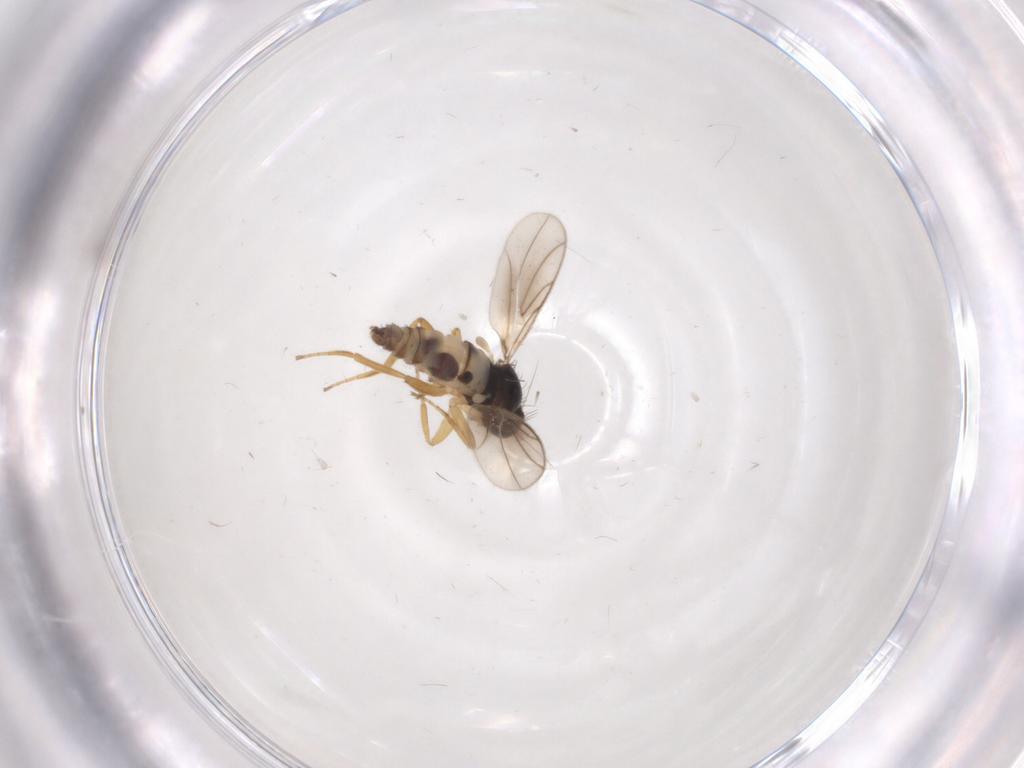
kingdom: Animalia
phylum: Arthropoda
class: Insecta
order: Diptera
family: Hybotidae
